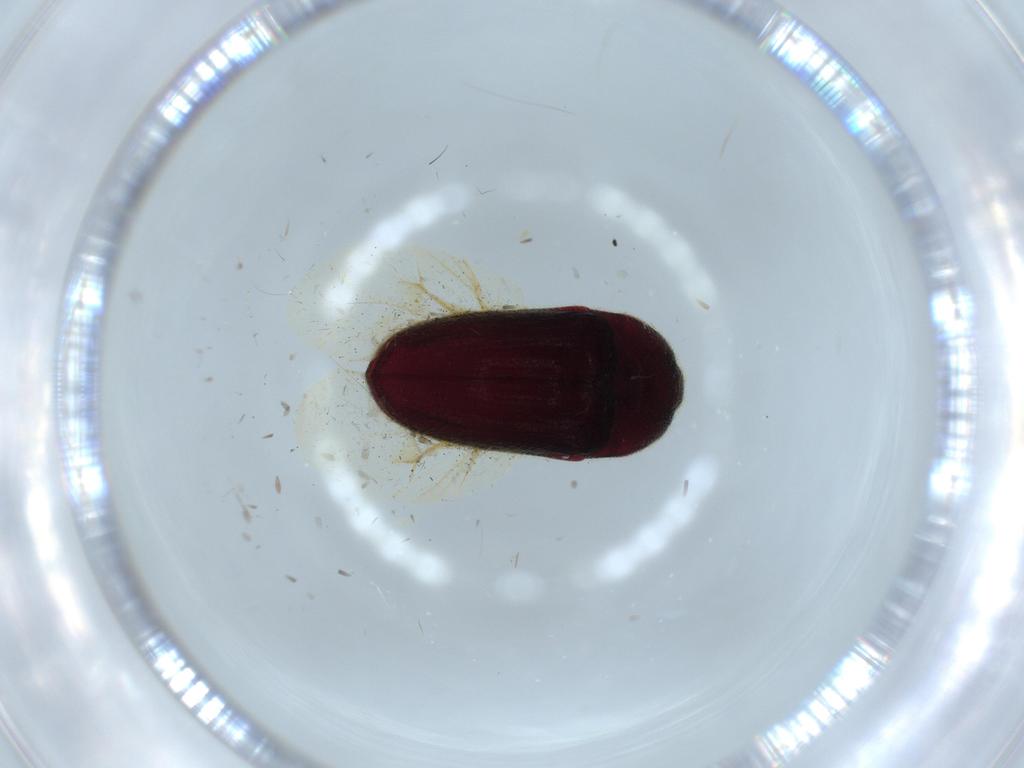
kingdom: Animalia
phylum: Arthropoda
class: Insecta
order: Coleoptera
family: Throscidae
